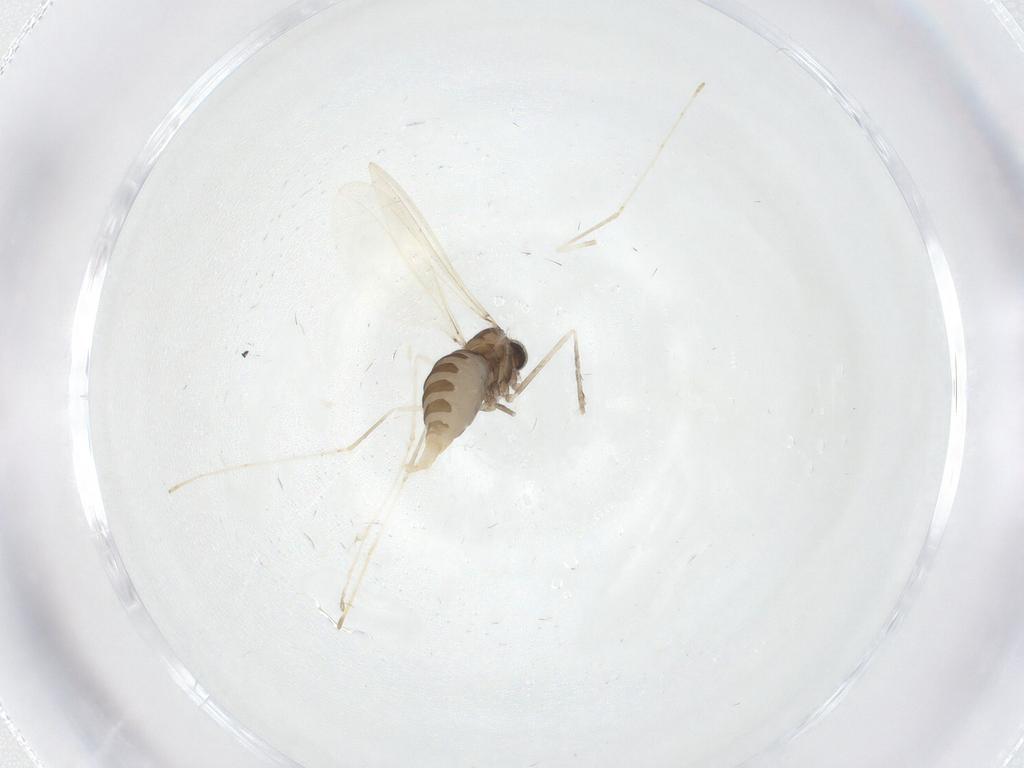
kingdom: Animalia
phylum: Arthropoda
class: Insecta
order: Diptera
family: Cecidomyiidae
